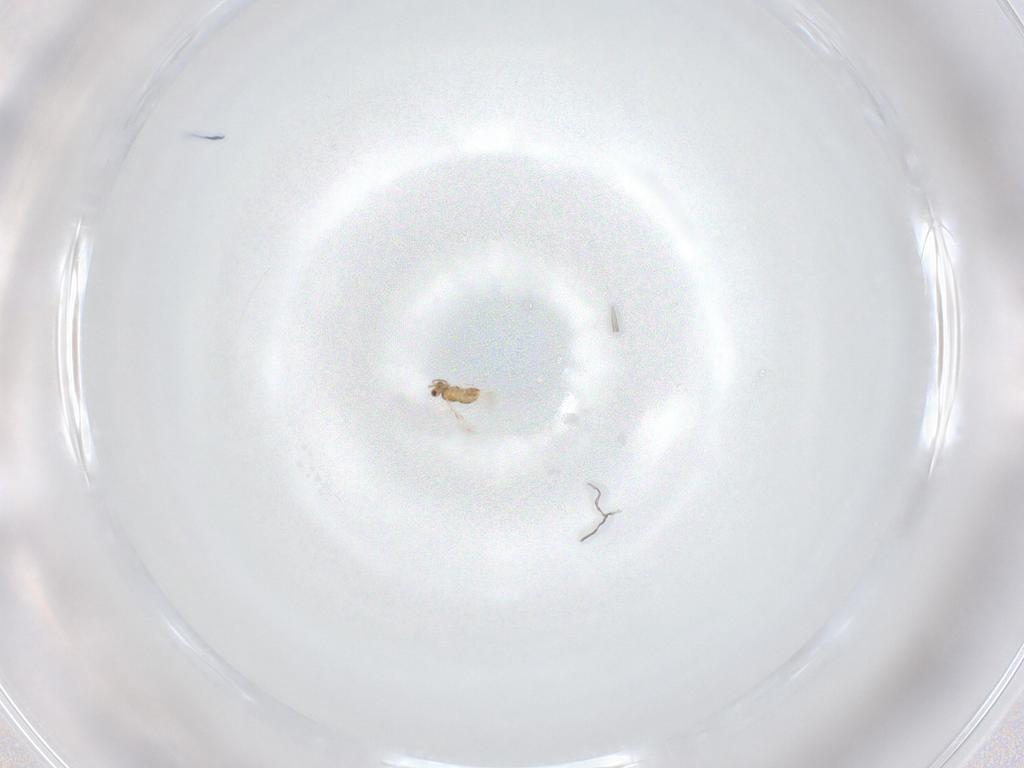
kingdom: Animalia
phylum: Arthropoda
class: Insecta
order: Hymenoptera
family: Aphelinidae
